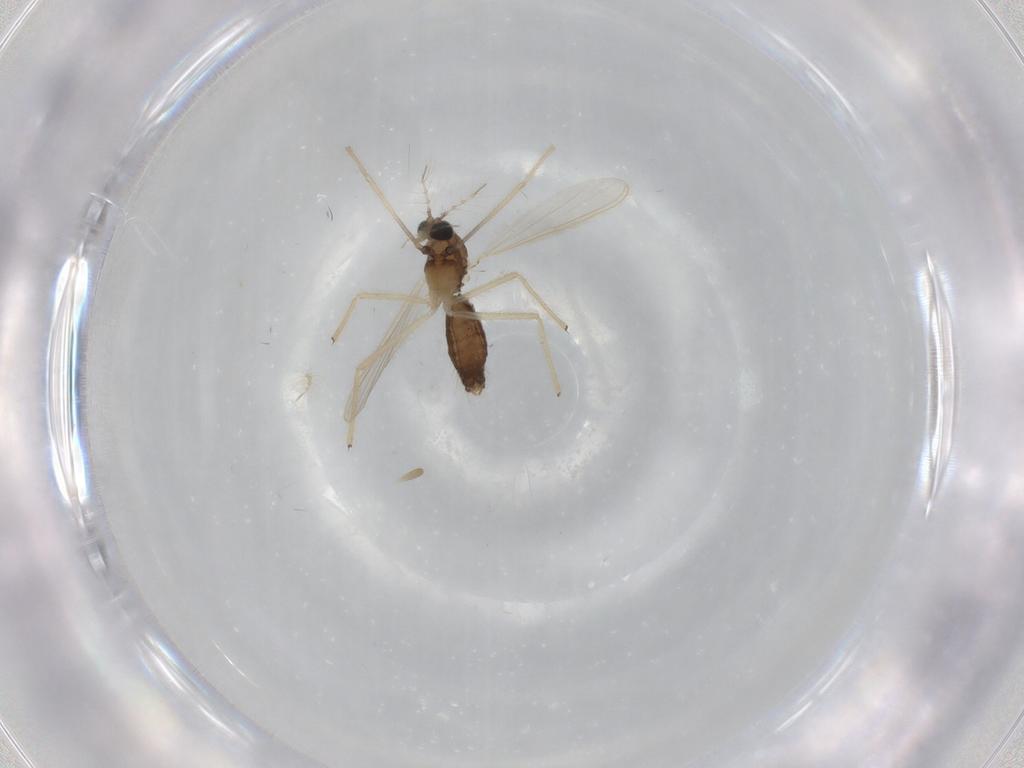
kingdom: Animalia
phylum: Arthropoda
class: Insecta
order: Diptera
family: Chironomidae
